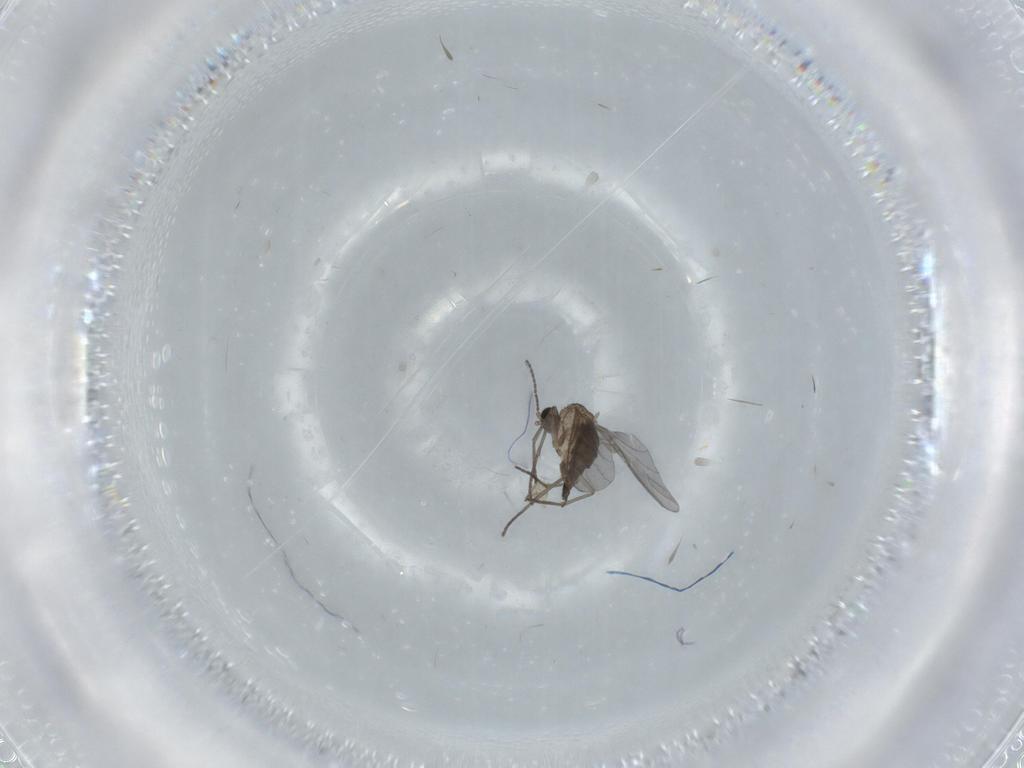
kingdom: Animalia
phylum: Arthropoda
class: Insecta
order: Diptera
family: Sciaridae
